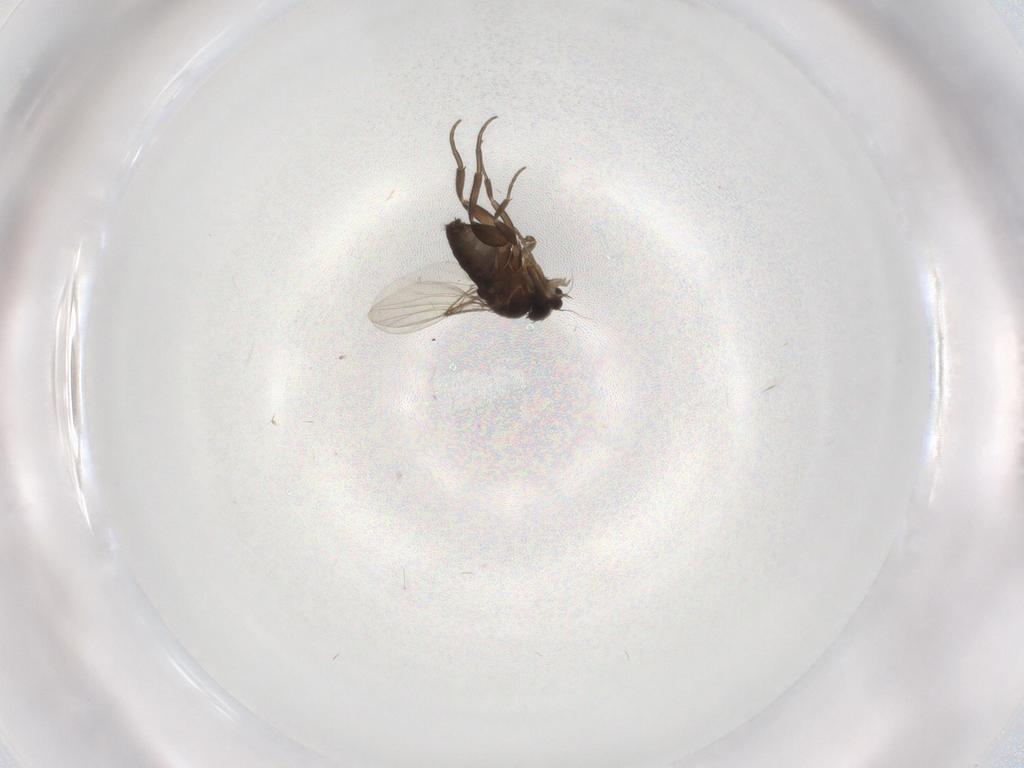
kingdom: Animalia
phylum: Arthropoda
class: Insecta
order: Diptera
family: Phoridae
